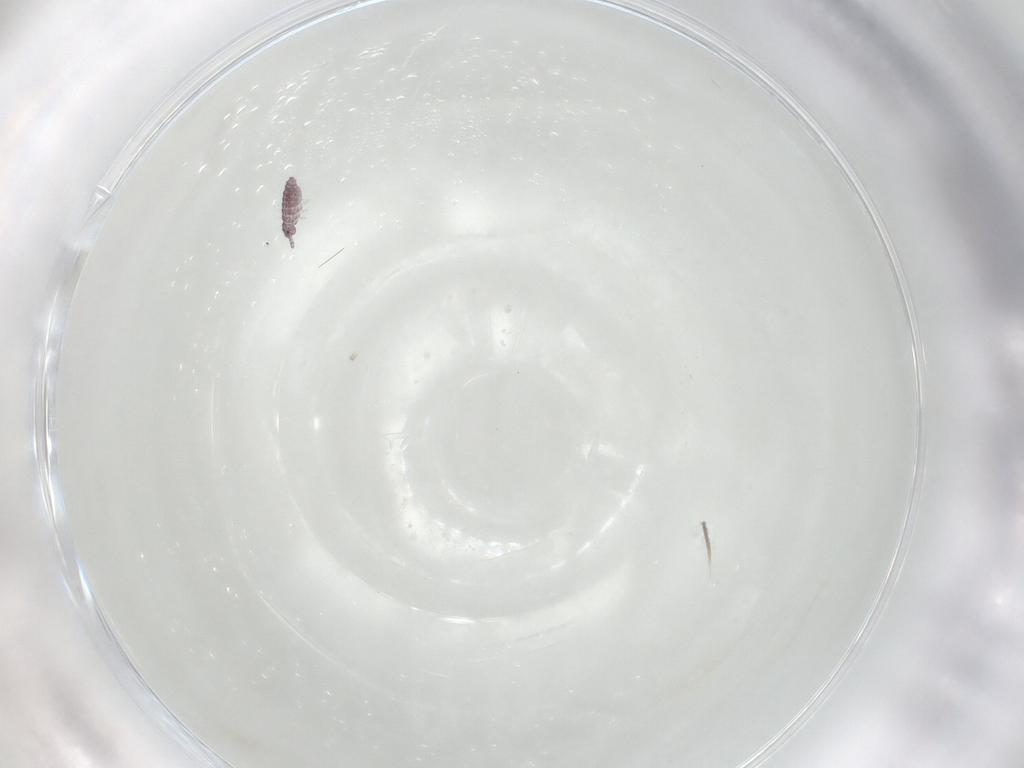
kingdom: Animalia
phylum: Arthropoda
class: Collembola
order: Poduromorpha
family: Hypogastruridae
